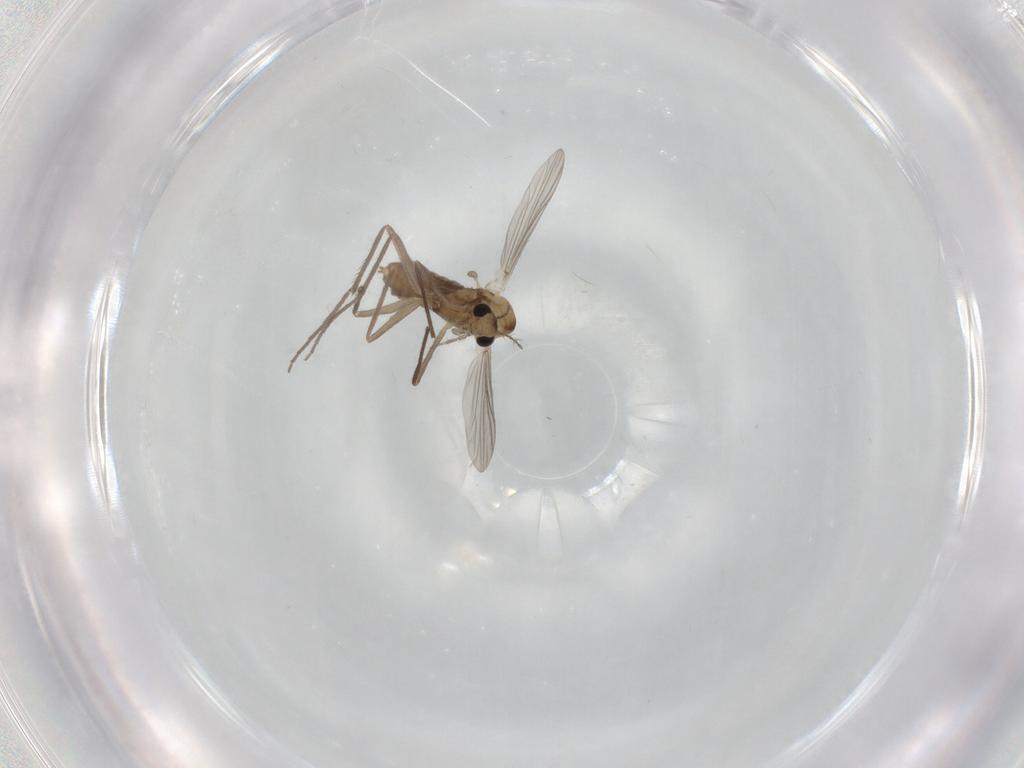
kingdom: Animalia
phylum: Arthropoda
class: Insecta
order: Diptera
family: Chironomidae
